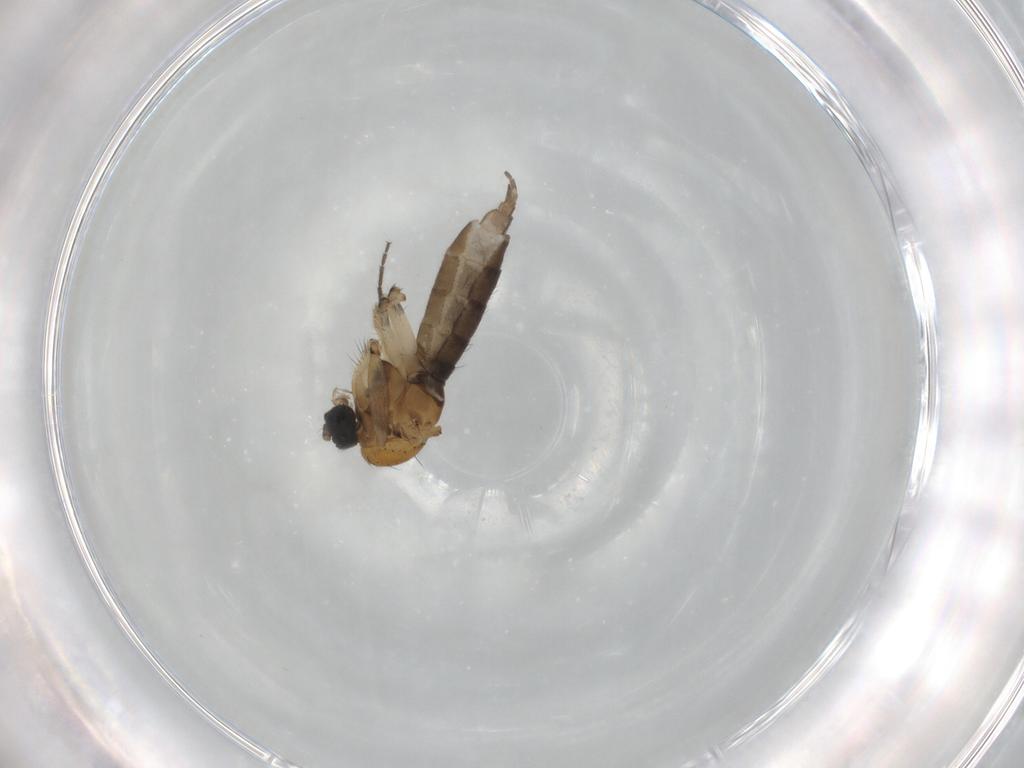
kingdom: Animalia
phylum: Arthropoda
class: Insecta
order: Diptera
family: Sciaridae
